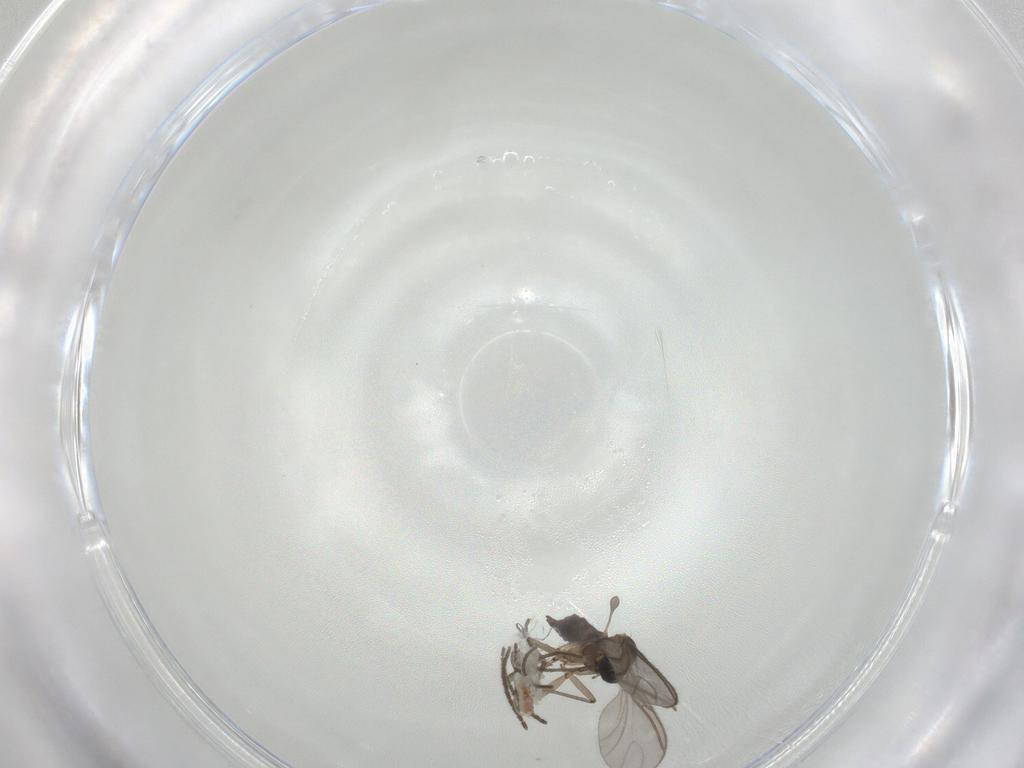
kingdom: Animalia
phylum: Arthropoda
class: Insecta
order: Diptera
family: Sciaridae
